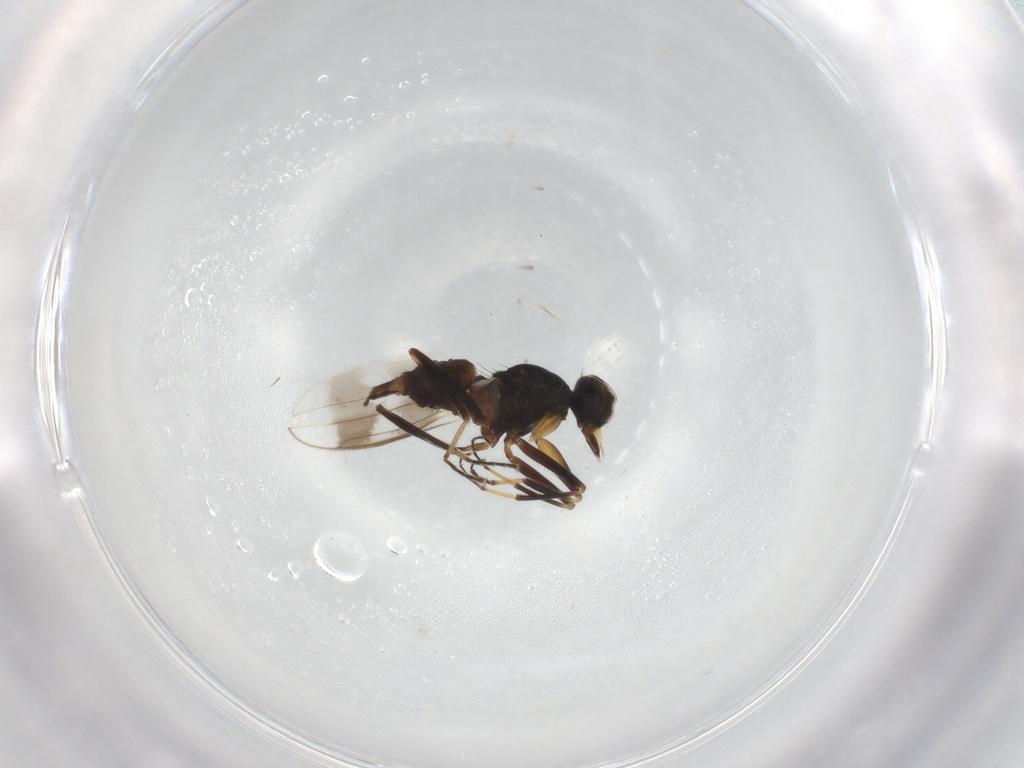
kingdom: Animalia
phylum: Arthropoda
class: Insecta
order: Diptera
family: Hybotidae
